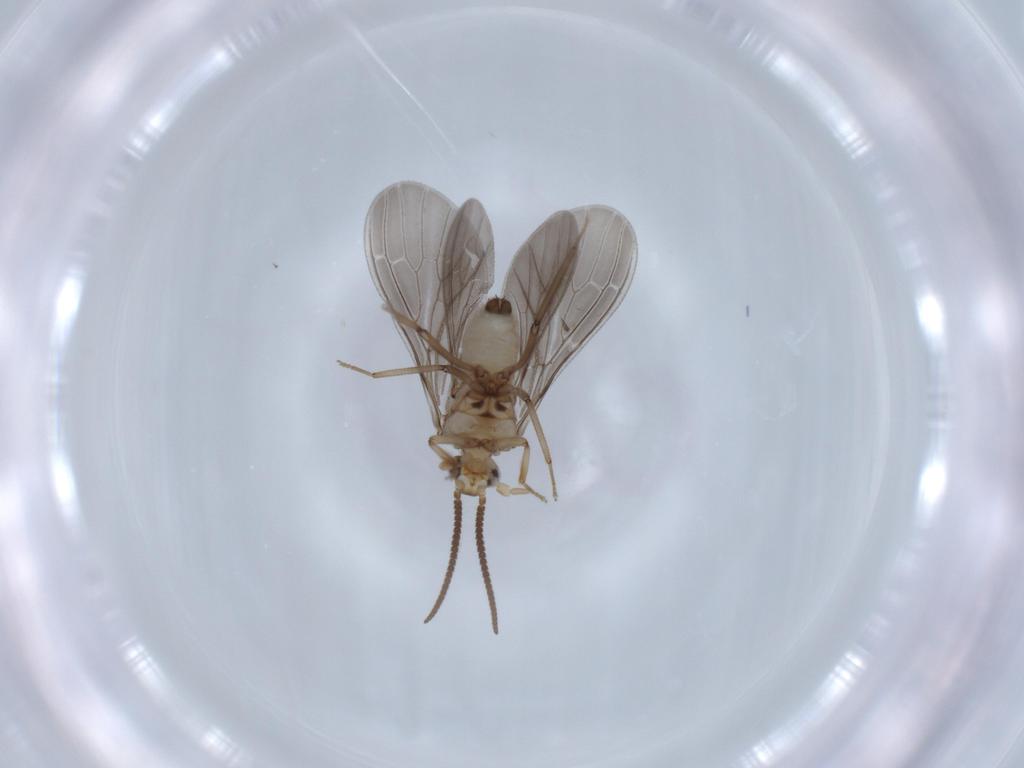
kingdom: Animalia
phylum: Arthropoda
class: Insecta
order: Neuroptera
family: Coniopterygidae
